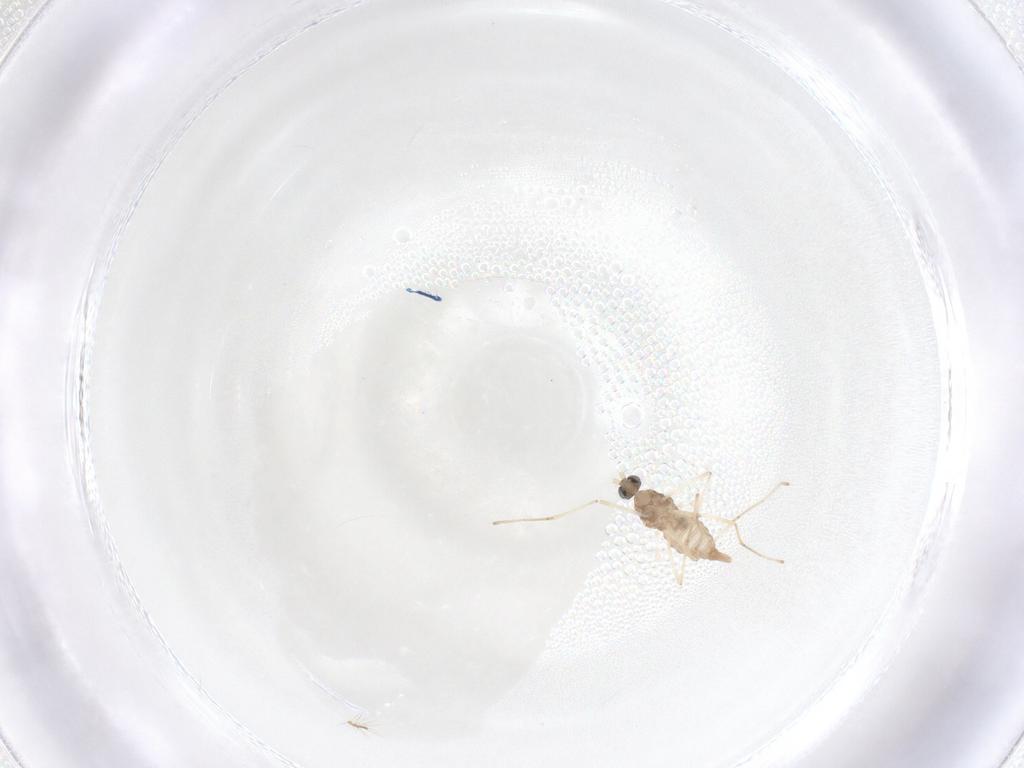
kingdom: Animalia
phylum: Arthropoda
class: Insecta
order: Diptera
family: Cecidomyiidae
